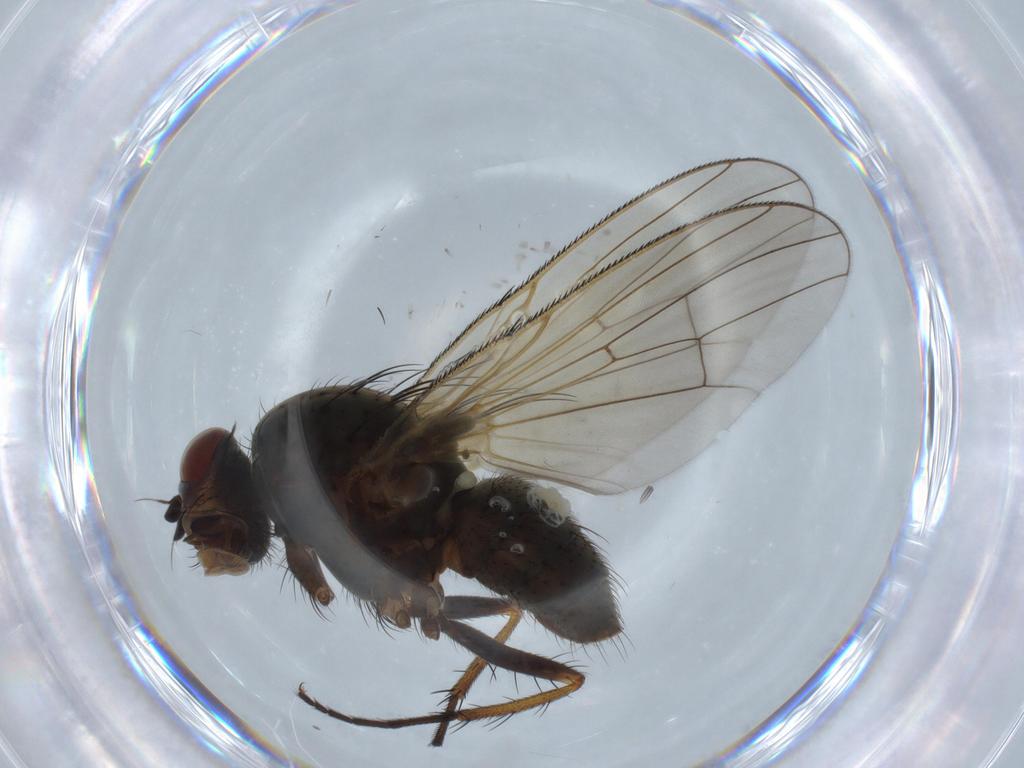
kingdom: Animalia
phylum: Arthropoda
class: Insecta
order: Diptera
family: Anthomyiidae
